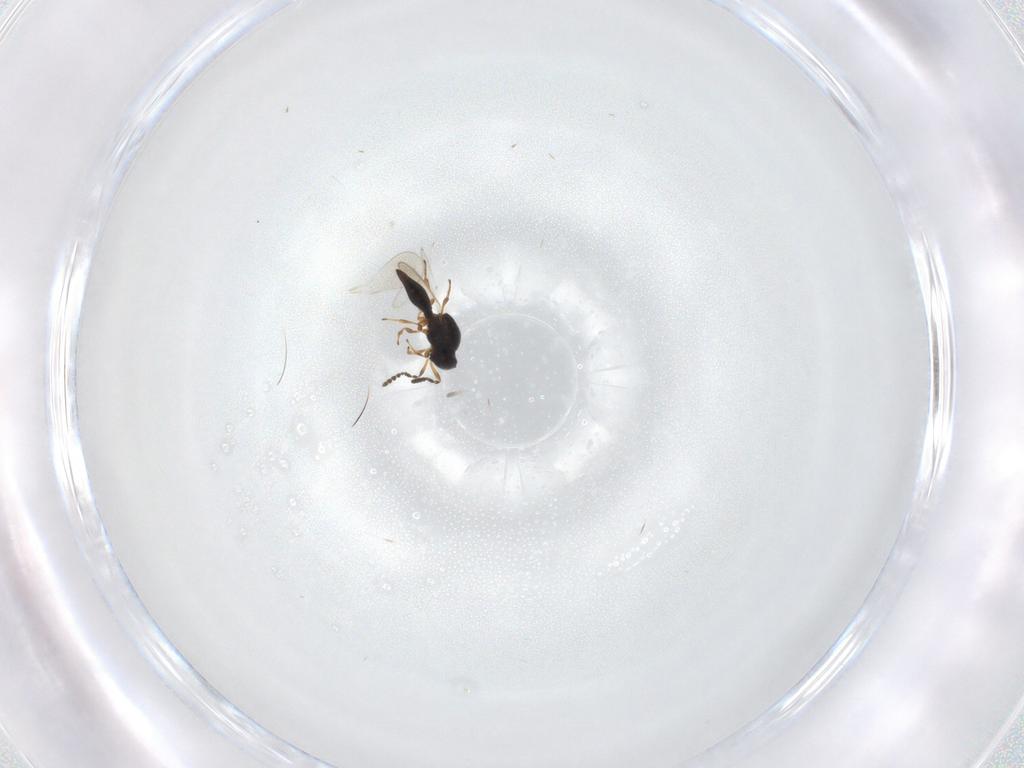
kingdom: Animalia
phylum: Arthropoda
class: Insecta
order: Hymenoptera
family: Platygastridae
